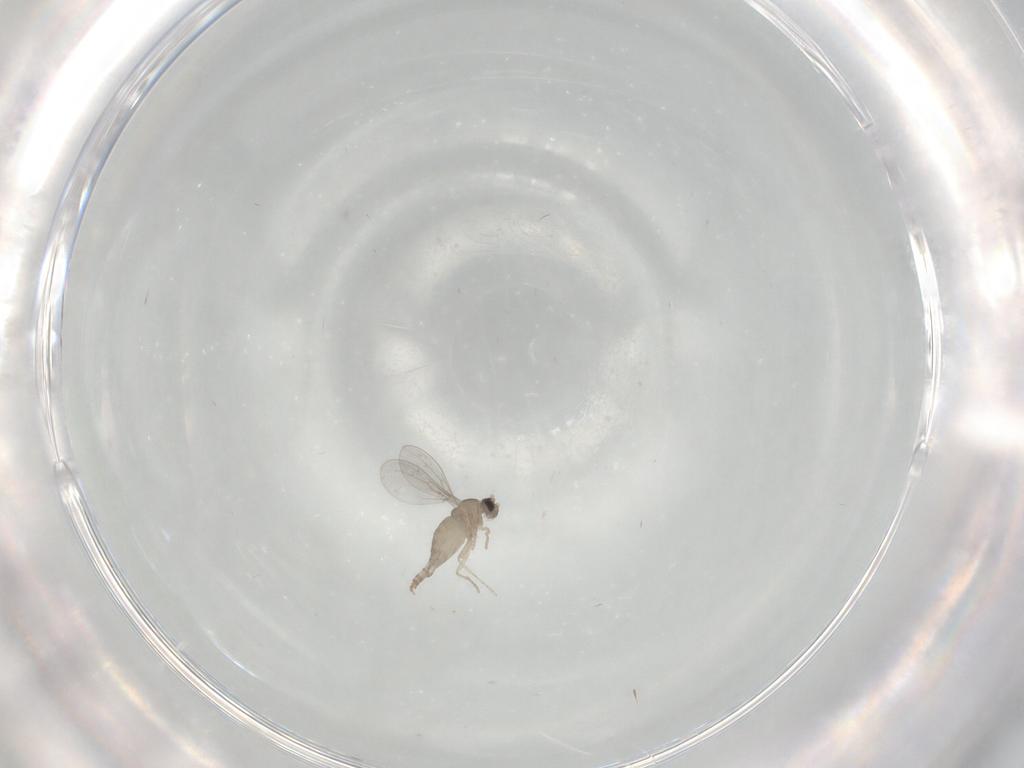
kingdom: Animalia
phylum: Arthropoda
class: Insecta
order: Diptera
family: Cecidomyiidae
